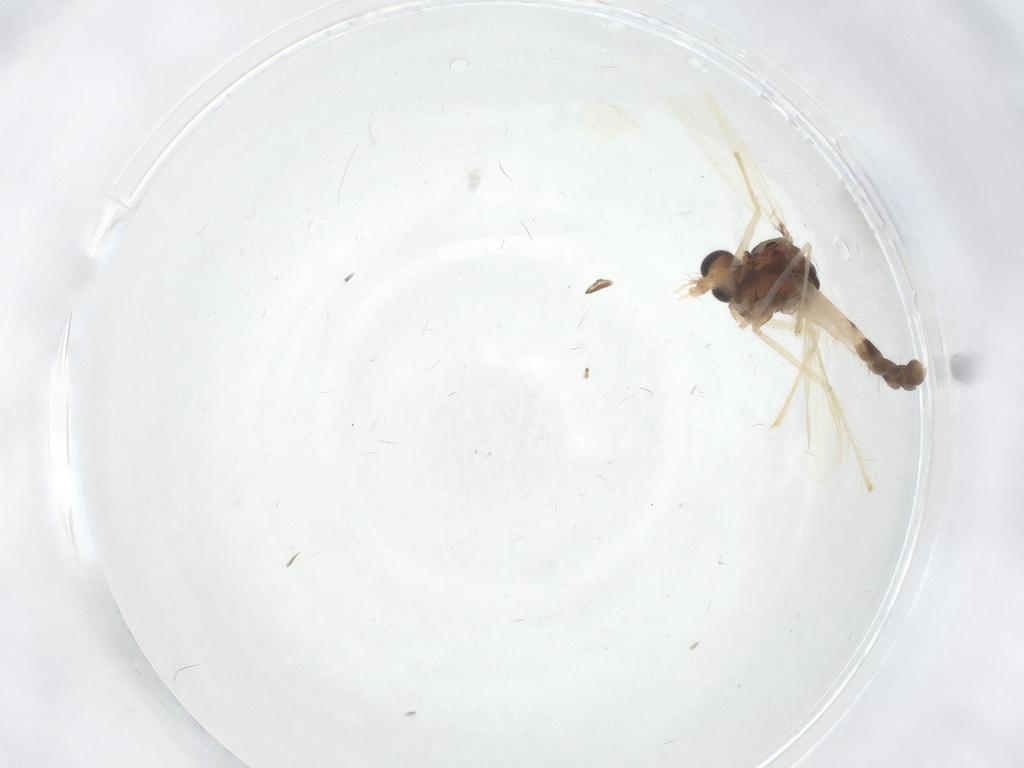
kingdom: Animalia
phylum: Arthropoda
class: Insecta
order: Diptera
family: Chironomidae
